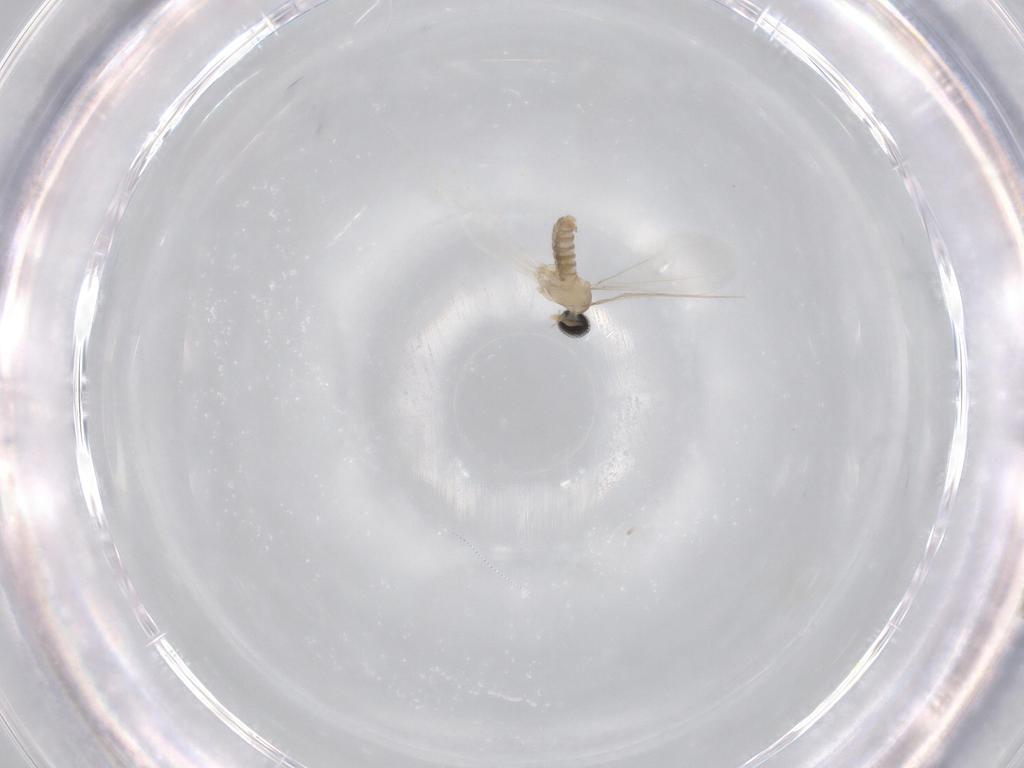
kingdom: Animalia
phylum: Arthropoda
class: Insecta
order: Diptera
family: Cecidomyiidae
